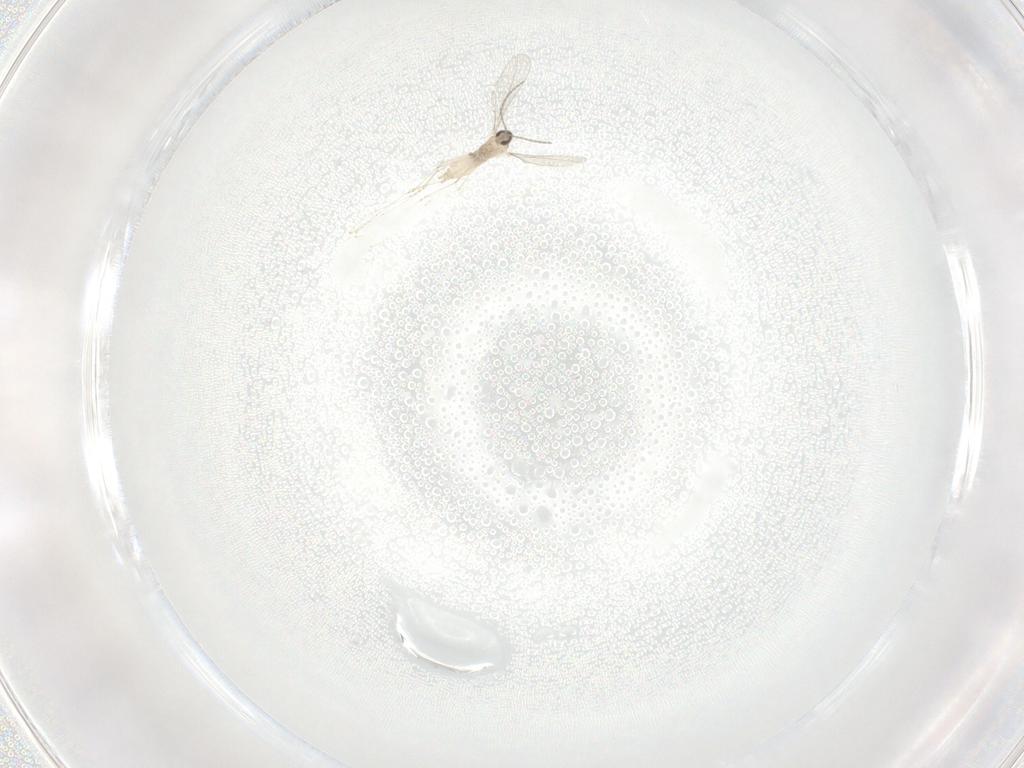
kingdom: Animalia
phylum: Arthropoda
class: Insecta
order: Diptera
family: Cecidomyiidae
